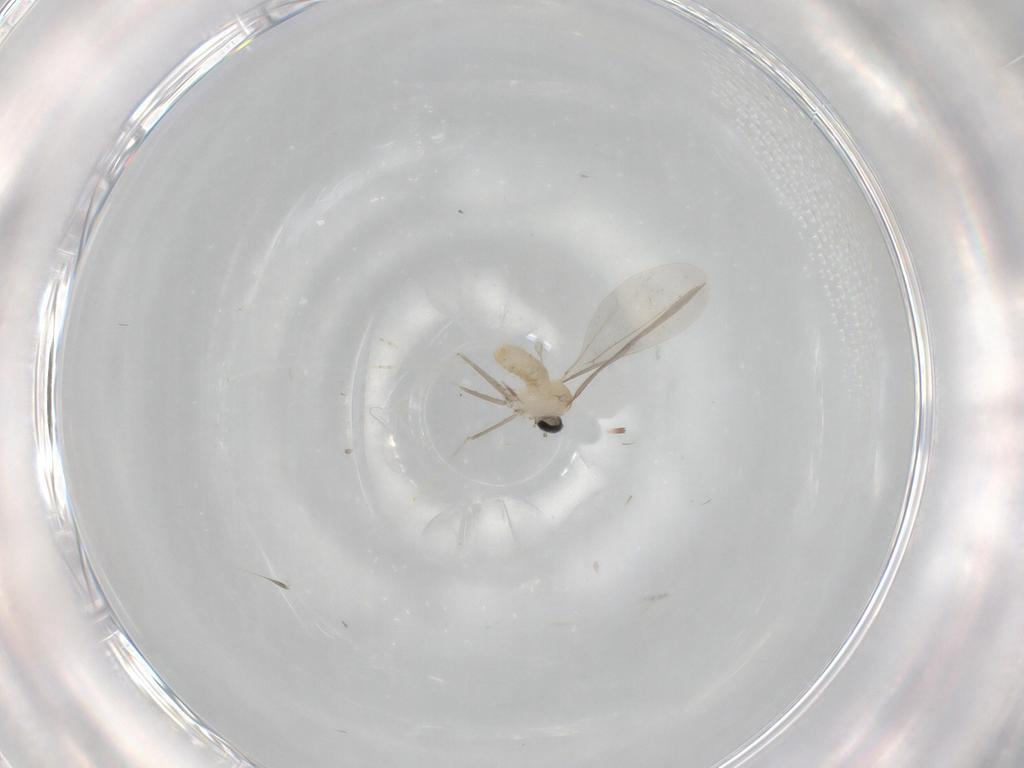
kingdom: Animalia
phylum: Arthropoda
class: Insecta
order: Diptera
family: Cecidomyiidae
